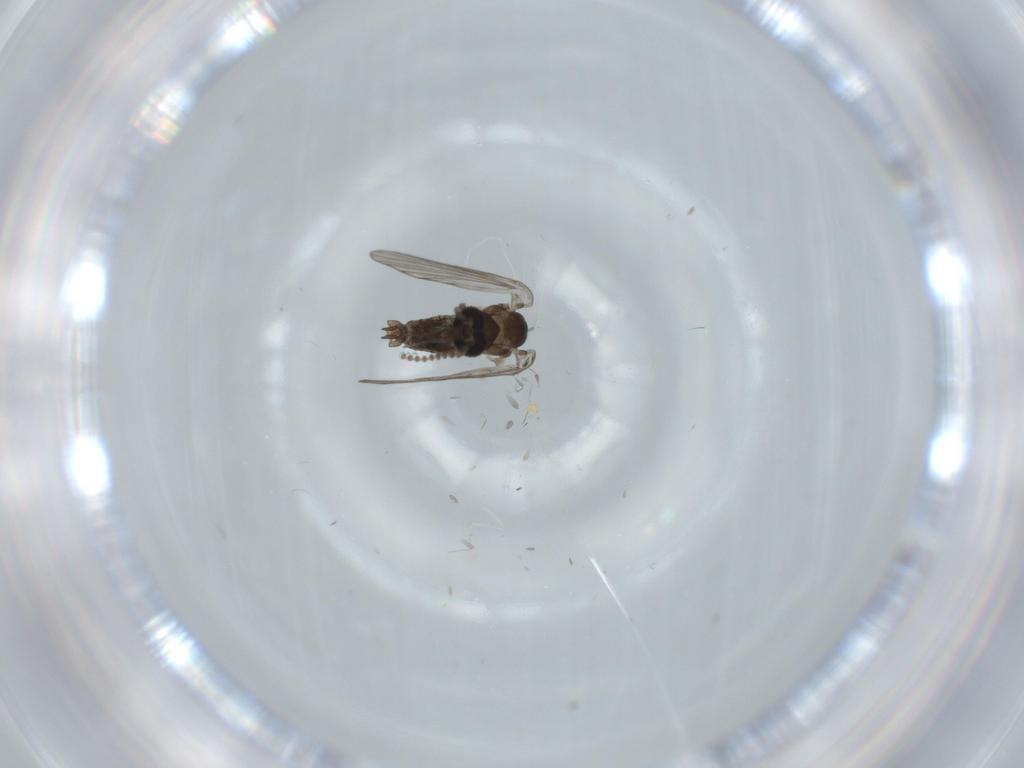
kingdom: Animalia
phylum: Arthropoda
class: Insecta
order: Diptera
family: Psychodidae
